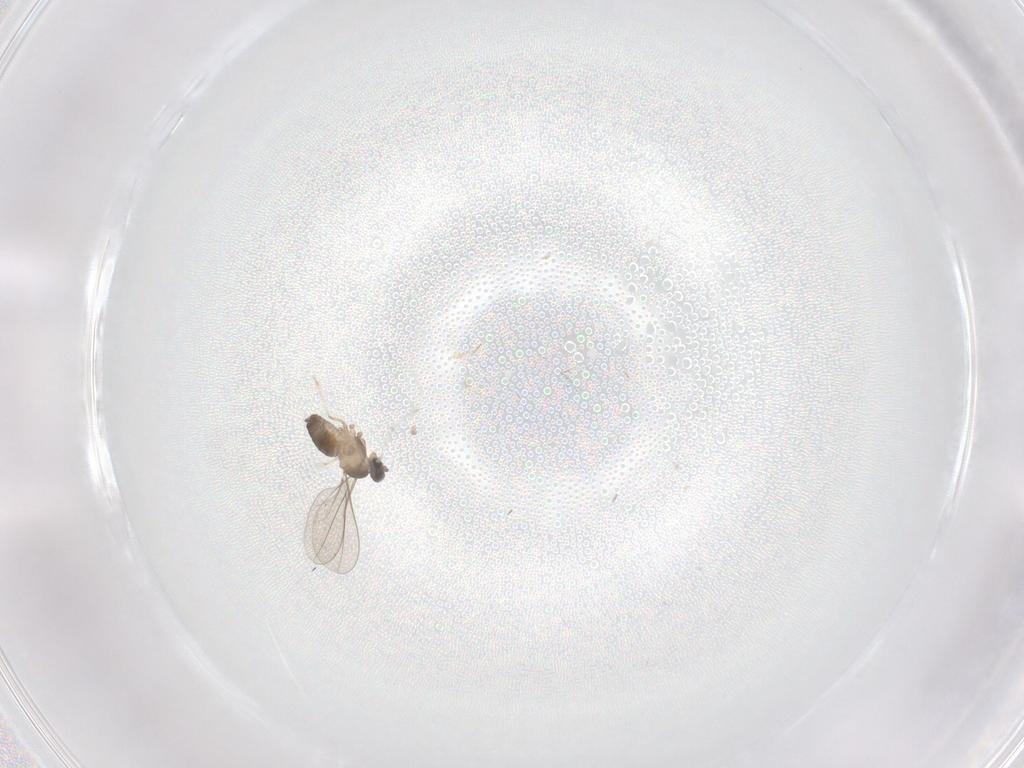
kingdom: Animalia
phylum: Arthropoda
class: Insecta
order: Diptera
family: Cecidomyiidae
